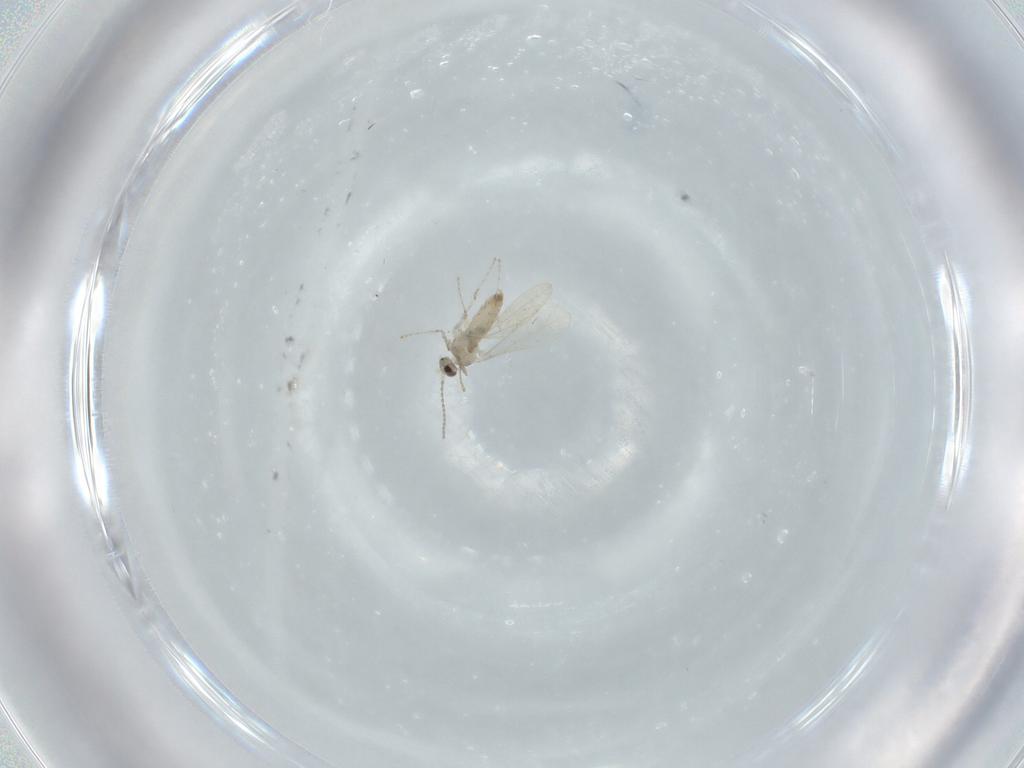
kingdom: Animalia
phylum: Arthropoda
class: Insecta
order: Diptera
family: Cecidomyiidae
